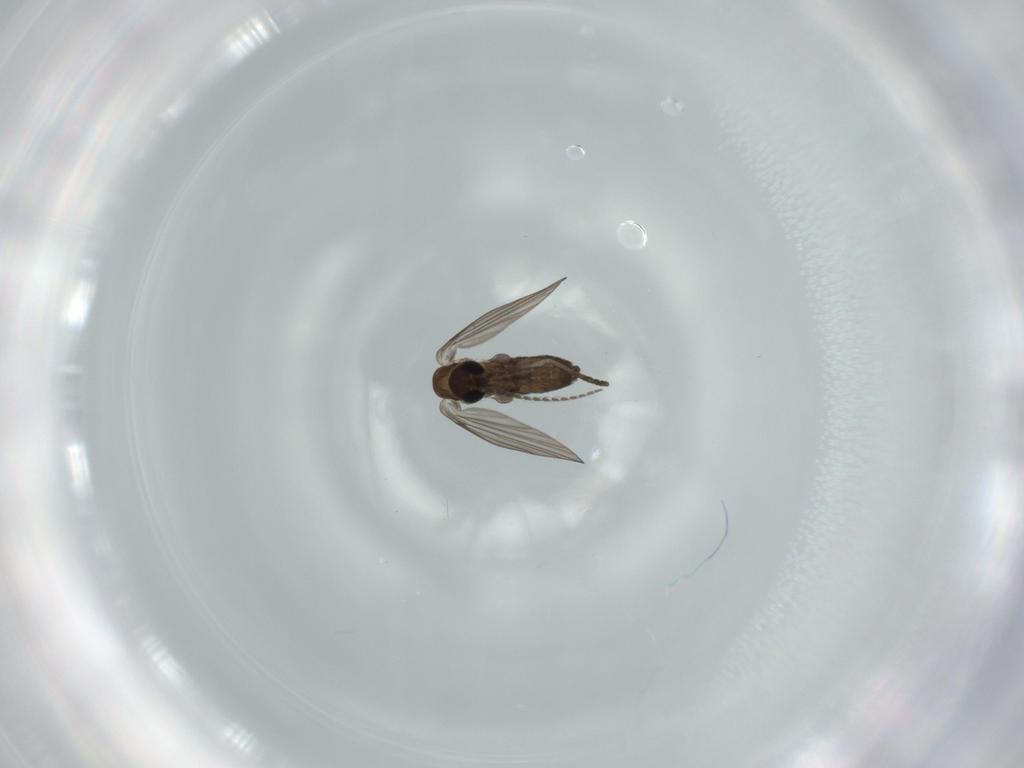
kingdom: Animalia
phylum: Arthropoda
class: Insecta
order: Diptera
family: Psychodidae
